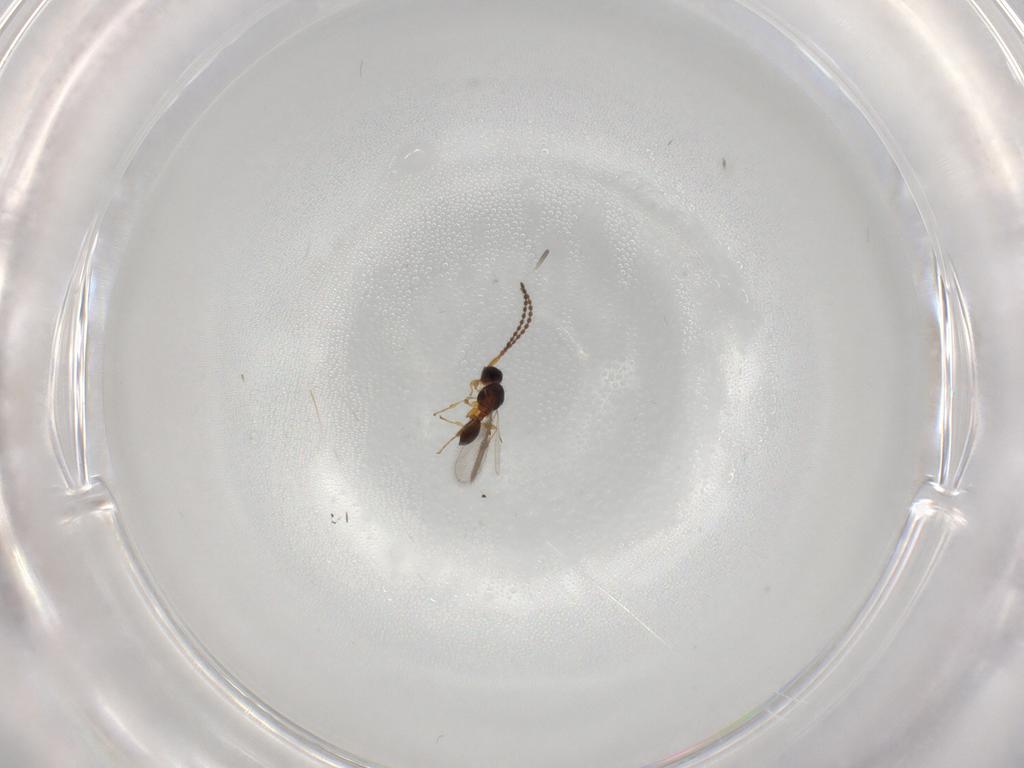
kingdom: Animalia
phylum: Arthropoda
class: Insecta
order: Hymenoptera
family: Diapriidae
